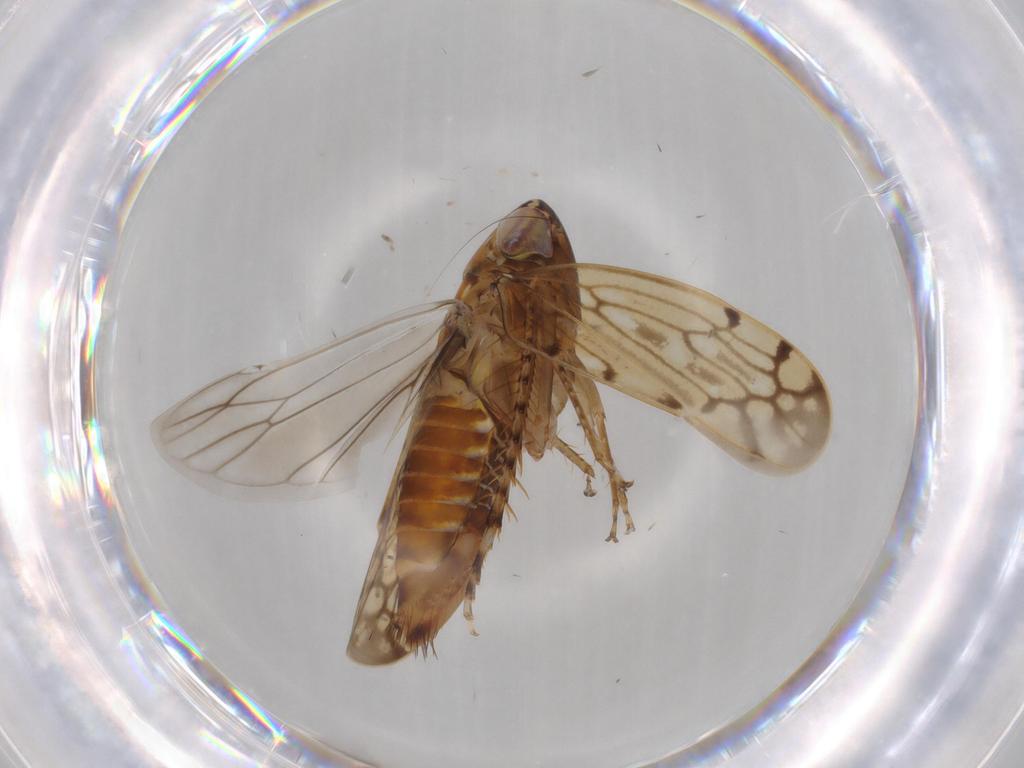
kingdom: Animalia
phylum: Arthropoda
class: Insecta
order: Hemiptera
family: Cicadellidae
